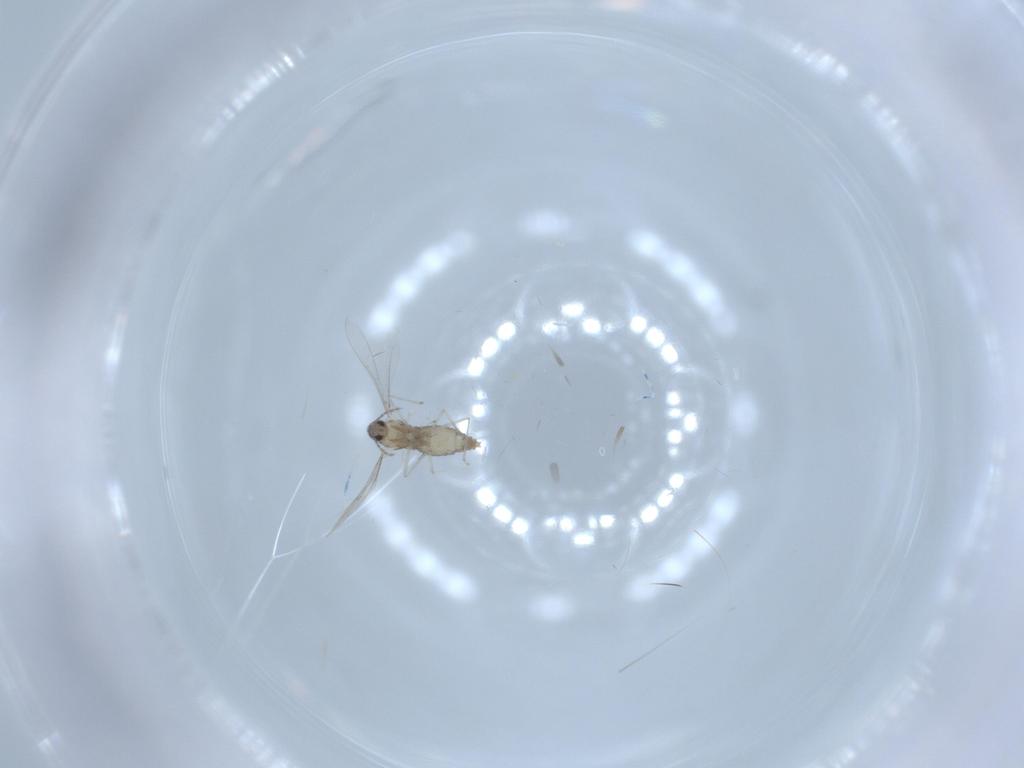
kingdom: Animalia
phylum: Arthropoda
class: Insecta
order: Diptera
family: Cecidomyiidae
